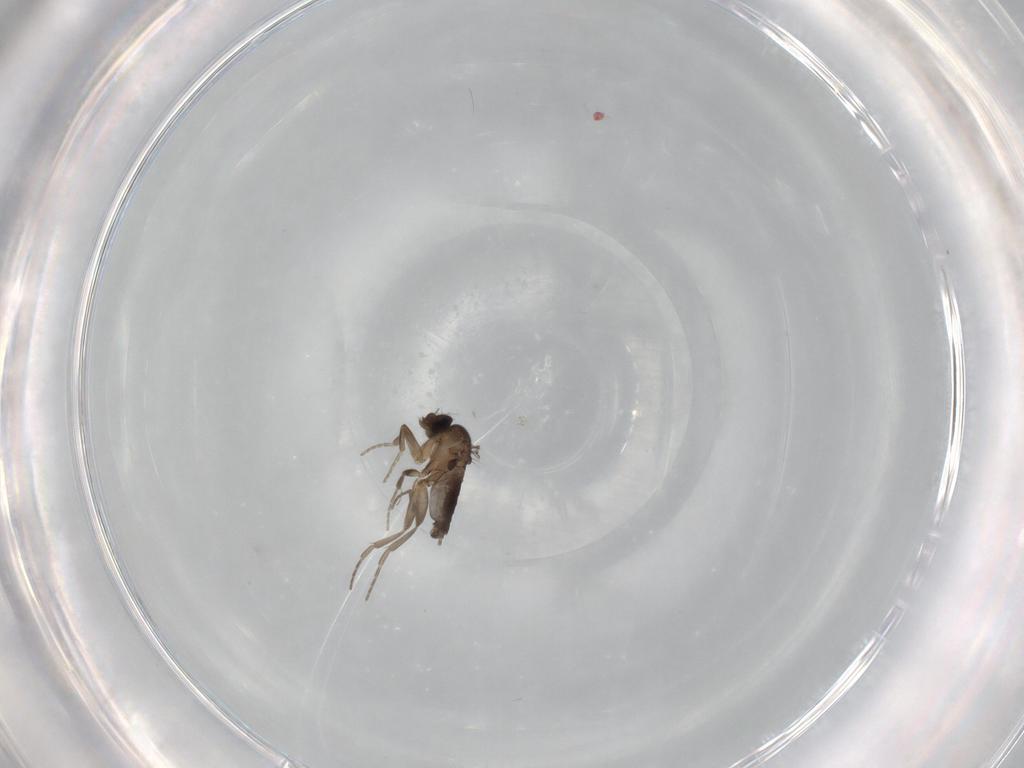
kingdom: Animalia
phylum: Arthropoda
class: Insecta
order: Diptera
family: Phoridae
